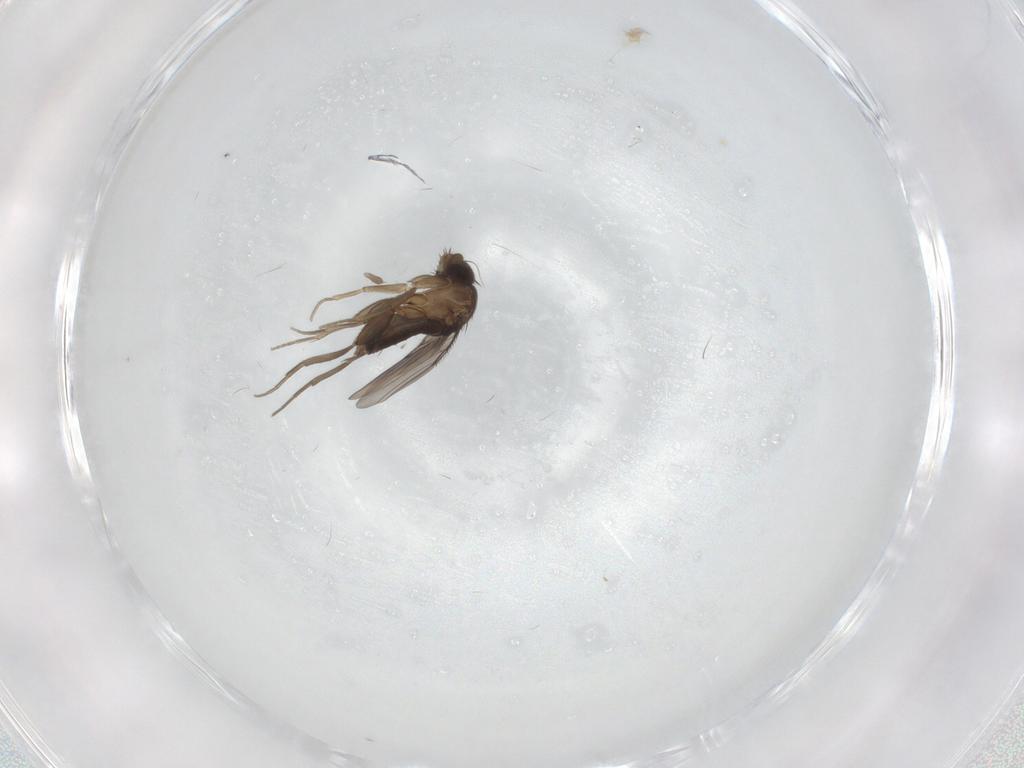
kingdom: Animalia
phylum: Arthropoda
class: Insecta
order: Diptera
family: Phoridae
